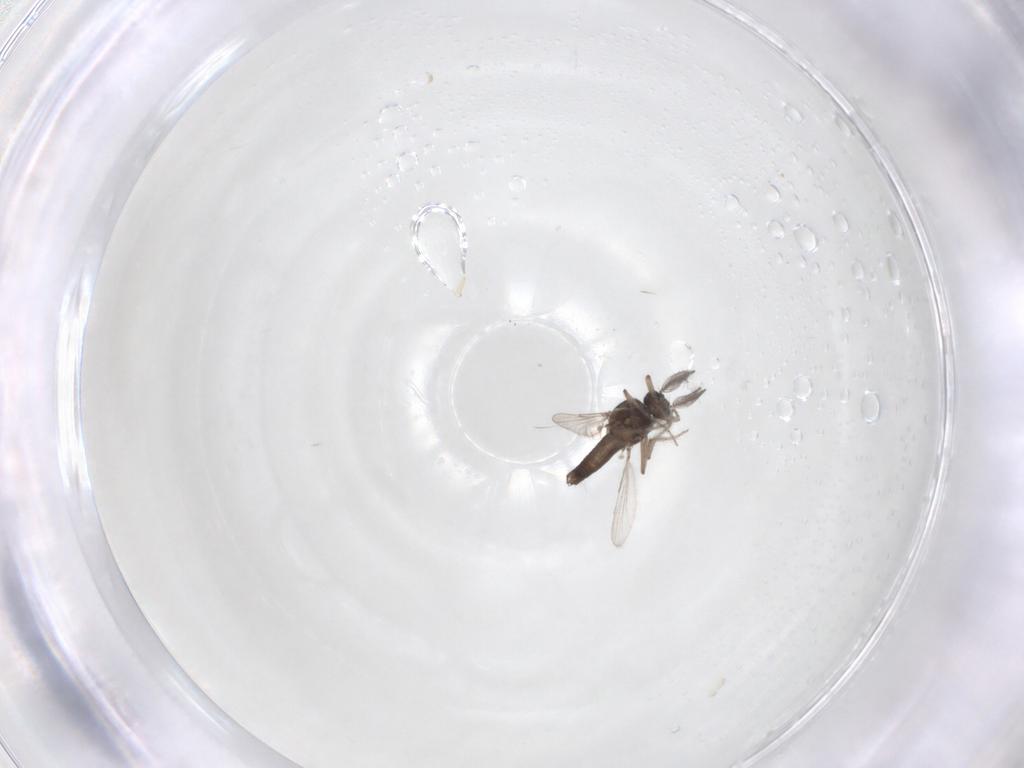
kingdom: Animalia
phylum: Arthropoda
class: Insecta
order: Diptera
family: Ceratopogonidae
